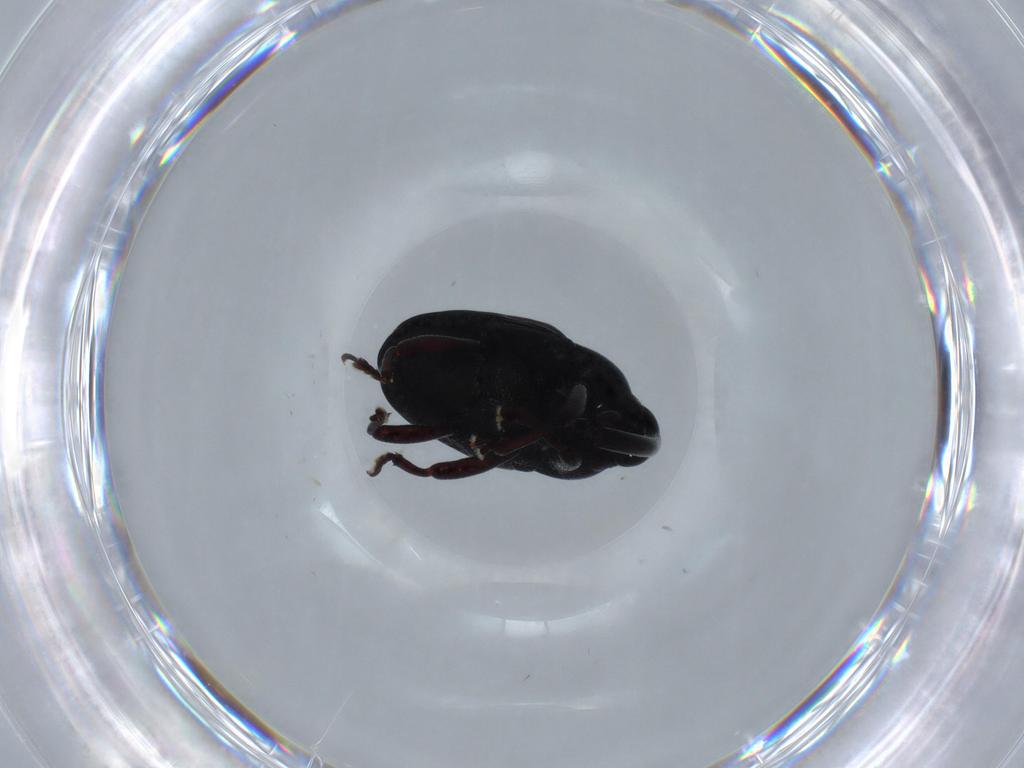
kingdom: Animalia
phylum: Arthropoda
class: Insecta
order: Coleoptera
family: Curculionidae
